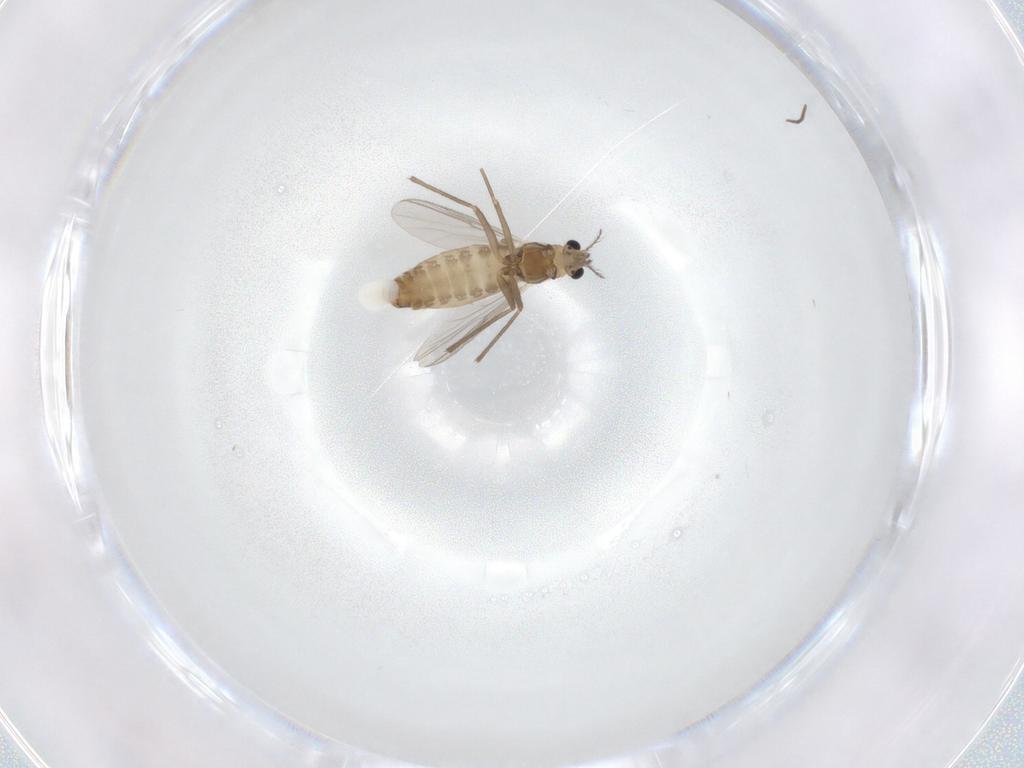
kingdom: Animalia
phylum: Arthropoda
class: Insecta
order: Diptera
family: Chironomidae
